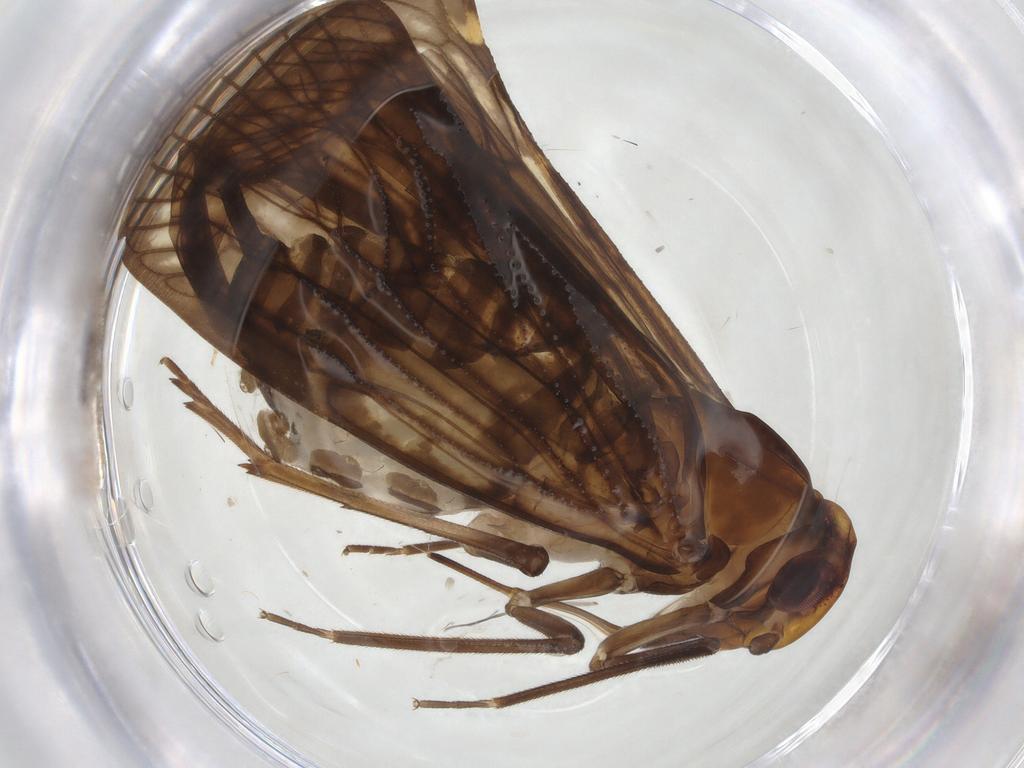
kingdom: Animalia
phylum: Arthropoda
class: Insecta
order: Hemiptera
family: Cixiidae
